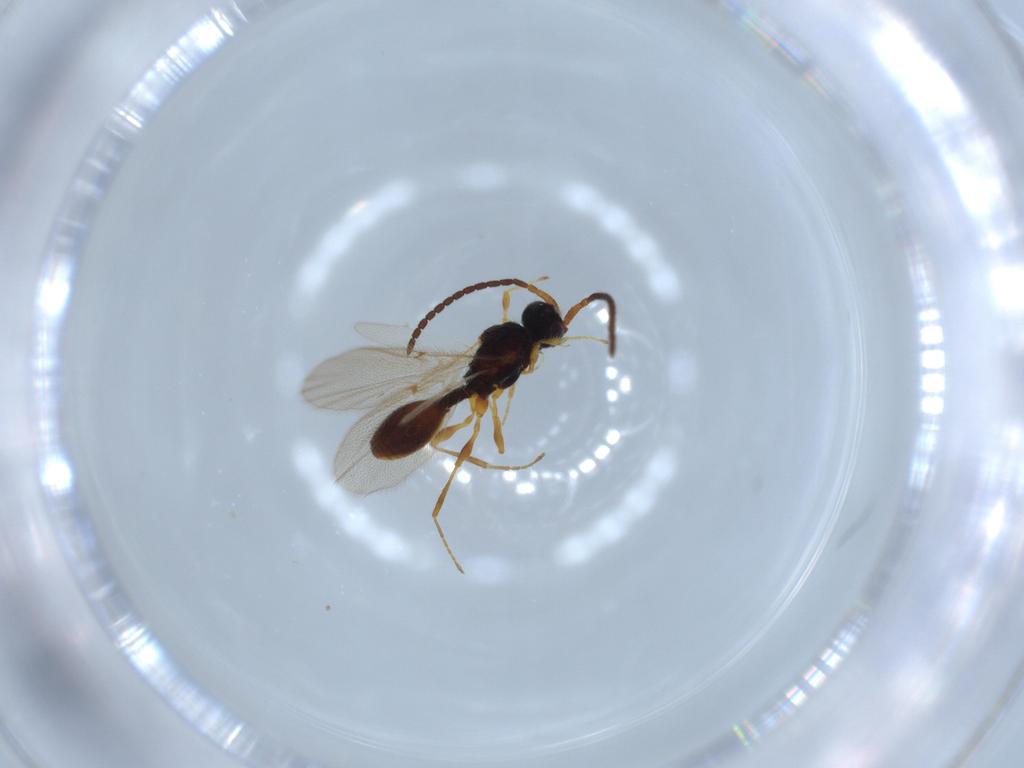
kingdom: Animalia
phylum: Arthropoda
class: Insecta
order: Hymenoptera
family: Diapriidae
